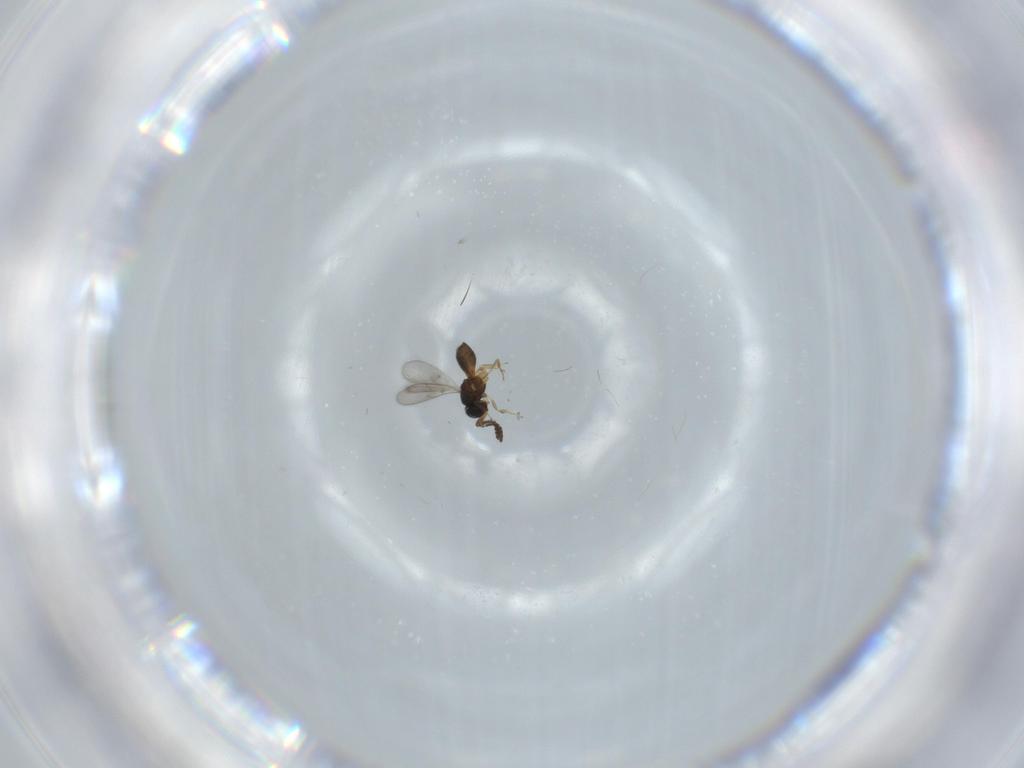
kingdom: Animalia
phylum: Arthropoda
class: Insecta
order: Hymenoptera
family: Scelionidae
